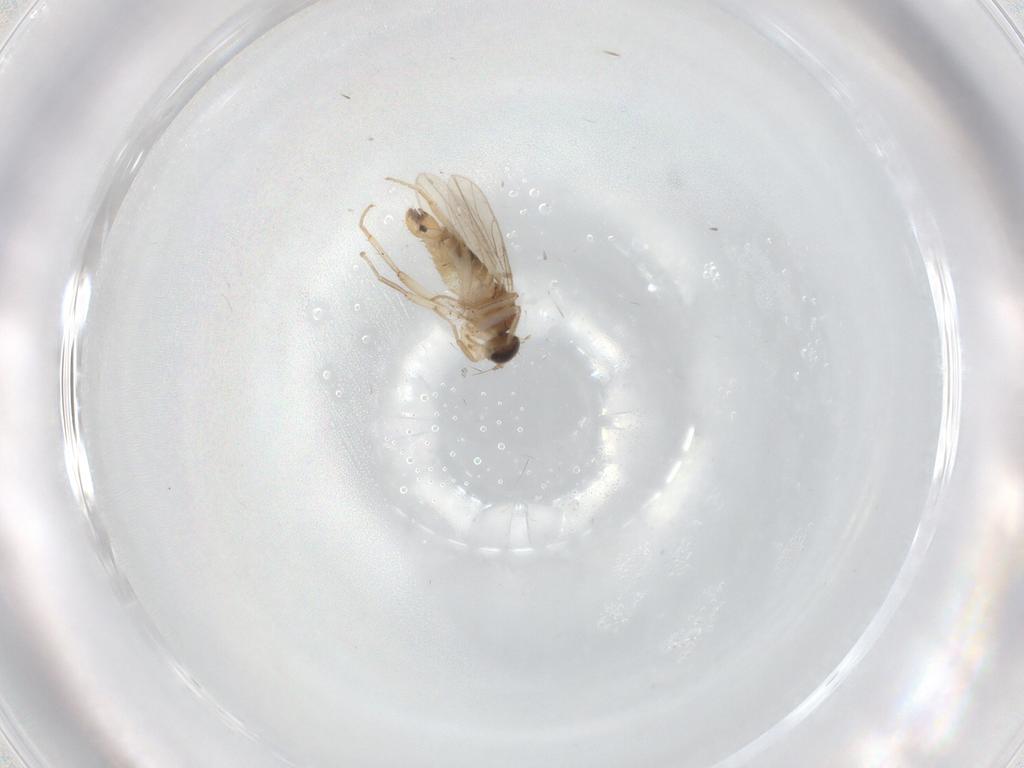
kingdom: Animalia
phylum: Arthropoda
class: Insecta
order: Diptera
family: Hybotidae
